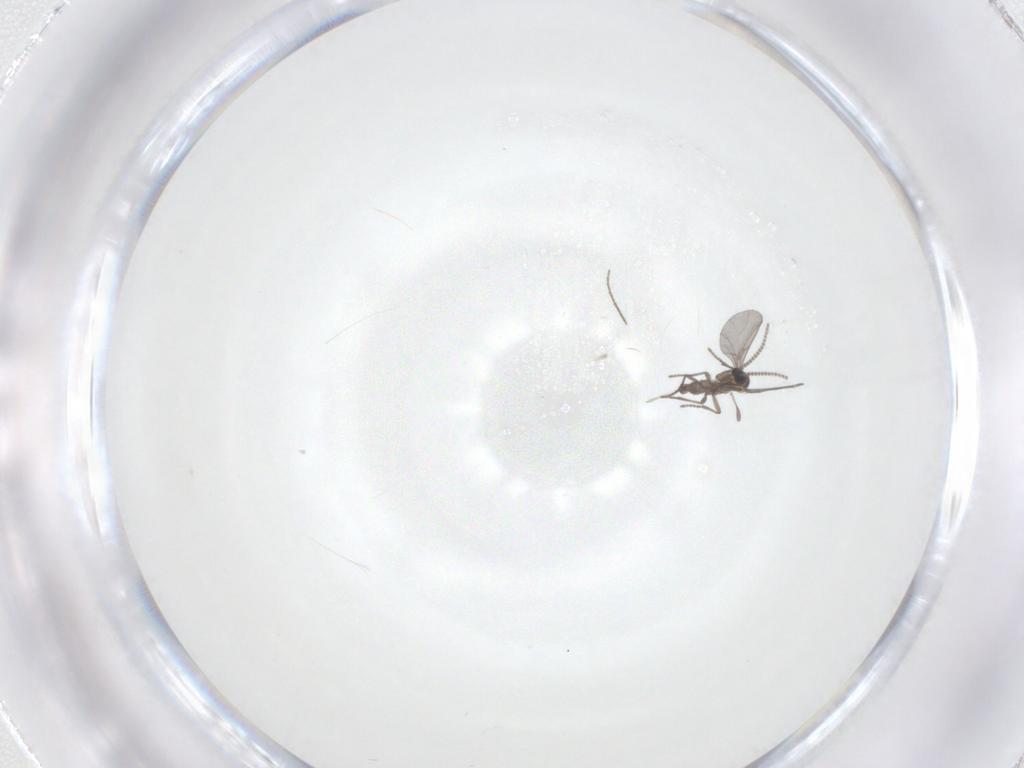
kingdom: Animalia
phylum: Arthropoda
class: Insecta
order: Diptera
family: Sciaridae
